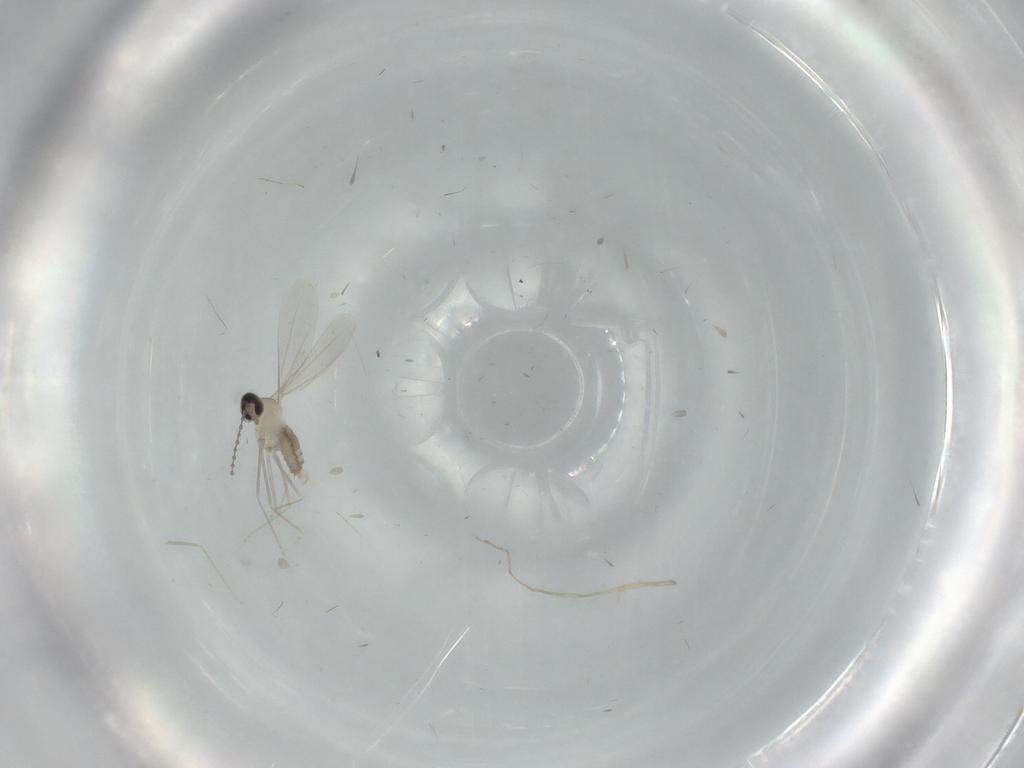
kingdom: Animalia
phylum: Arthropoda
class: Insecta
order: Diptera
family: Cecidomyiidae
